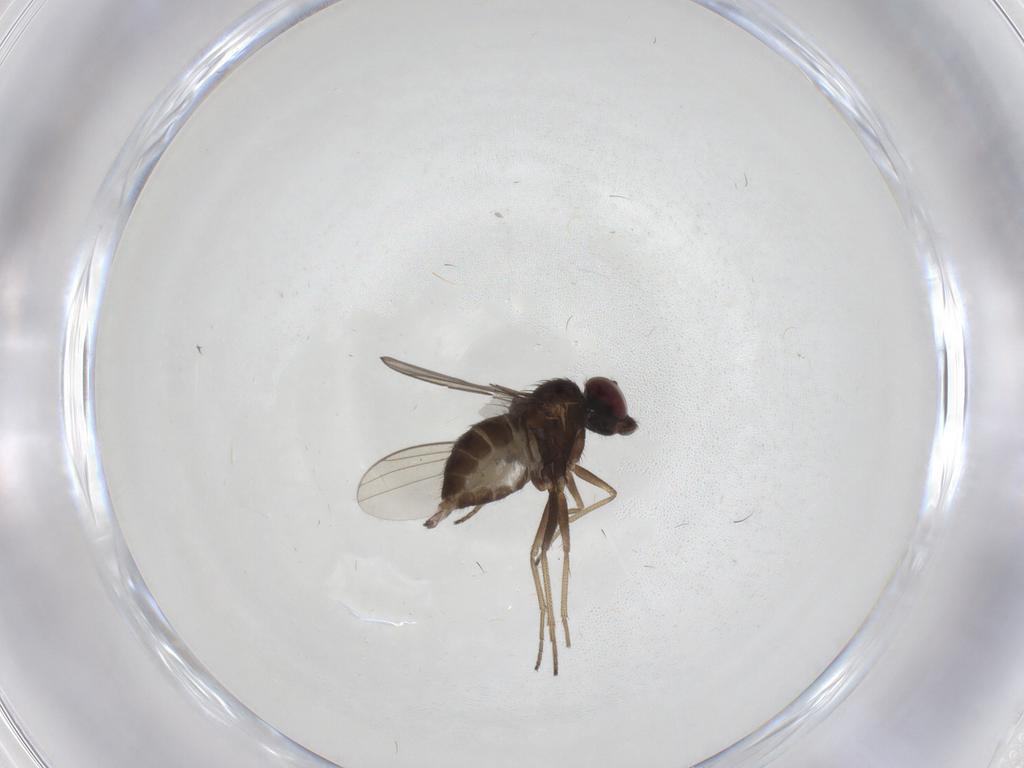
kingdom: Animalia
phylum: Arthropoda
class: Insecta
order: Diptera
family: Dolichopodidae
